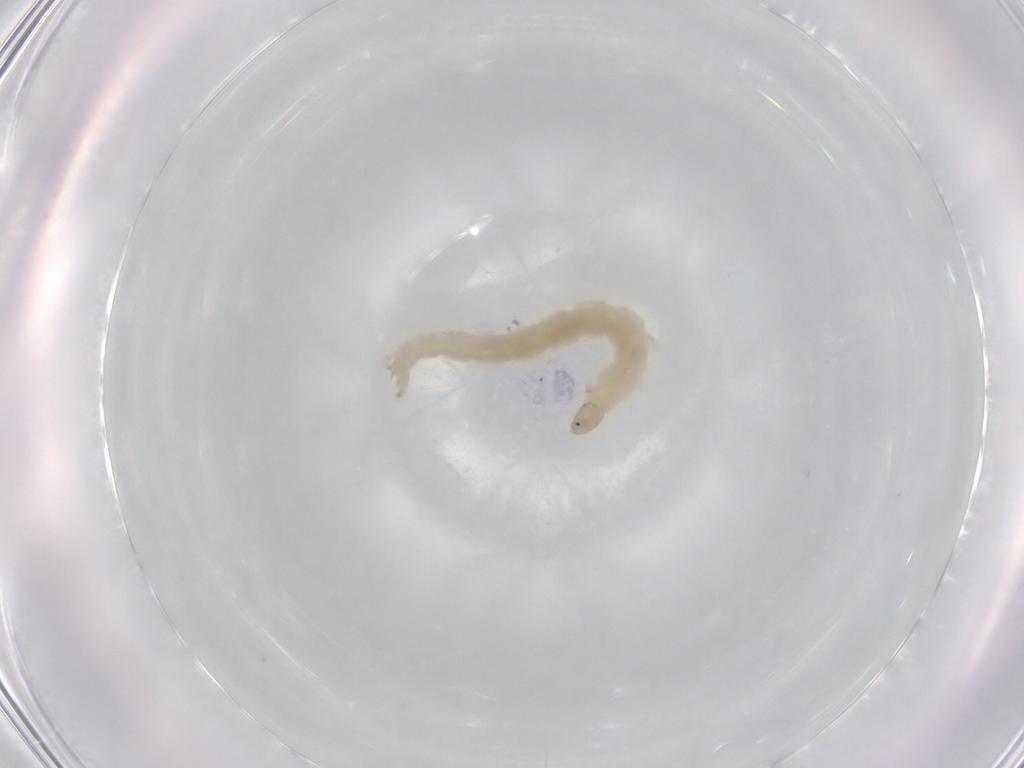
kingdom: Animalia
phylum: Arthropoda
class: Insecta
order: Diptera
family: Chironomidae
